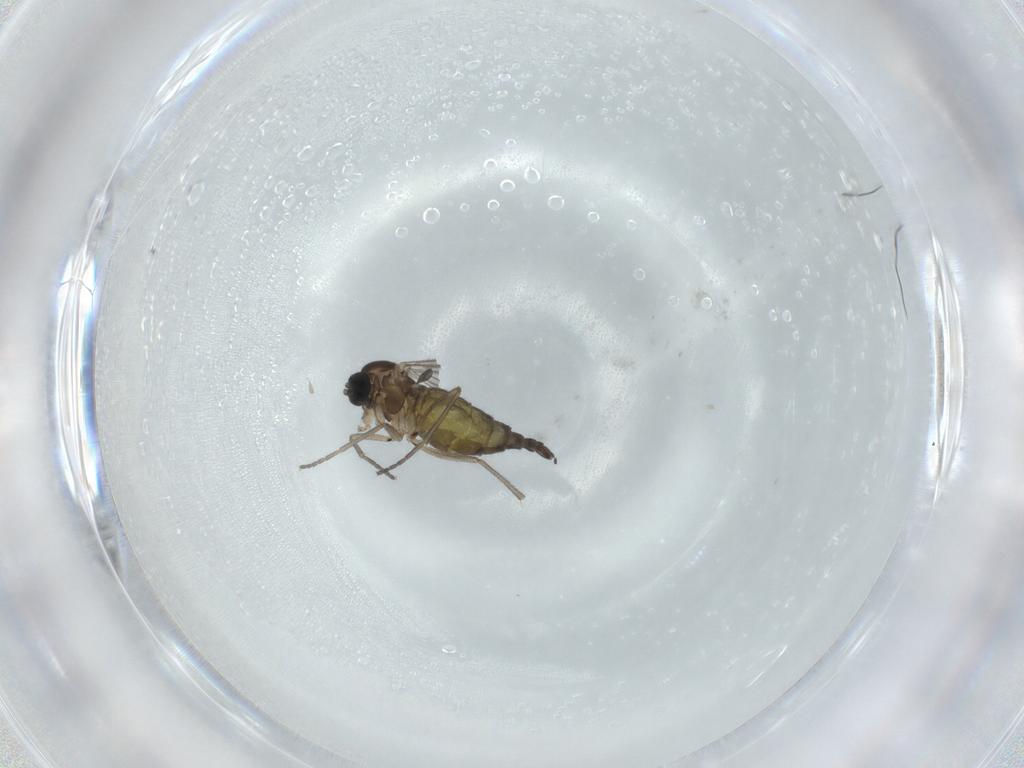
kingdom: Animalia
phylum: Arthropoda
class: Insecta
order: Diptera
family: Sciaridae
